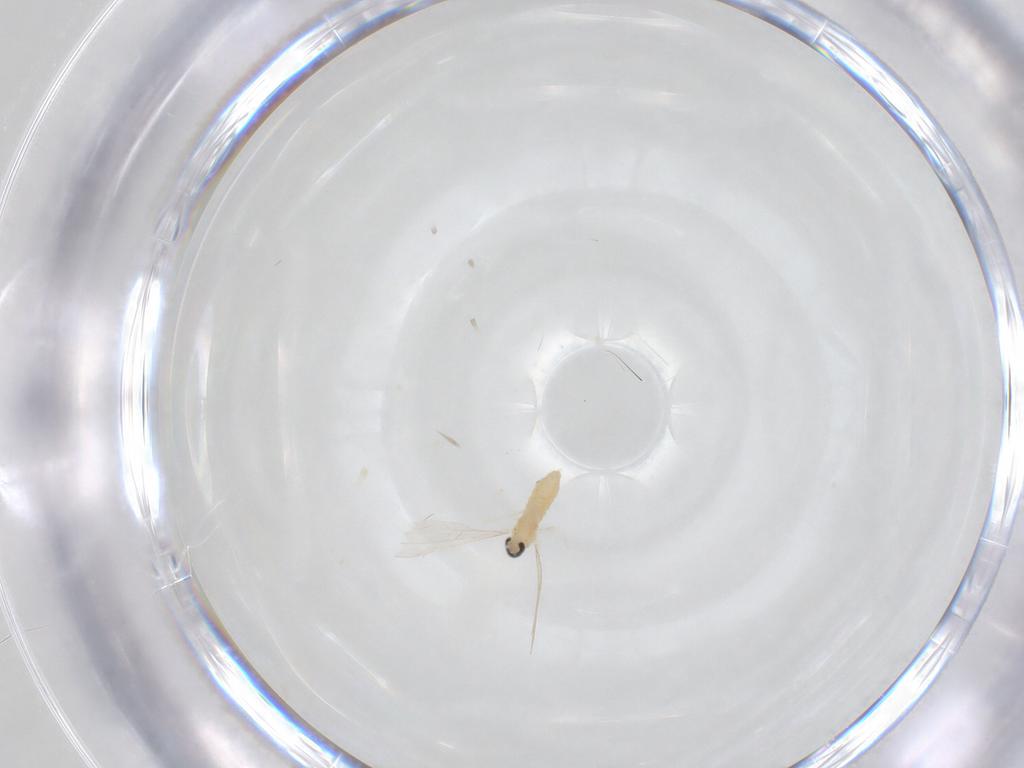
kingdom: Animalia
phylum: Arthropoda
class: Insecta
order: Diptera
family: Cecidomyiidae
